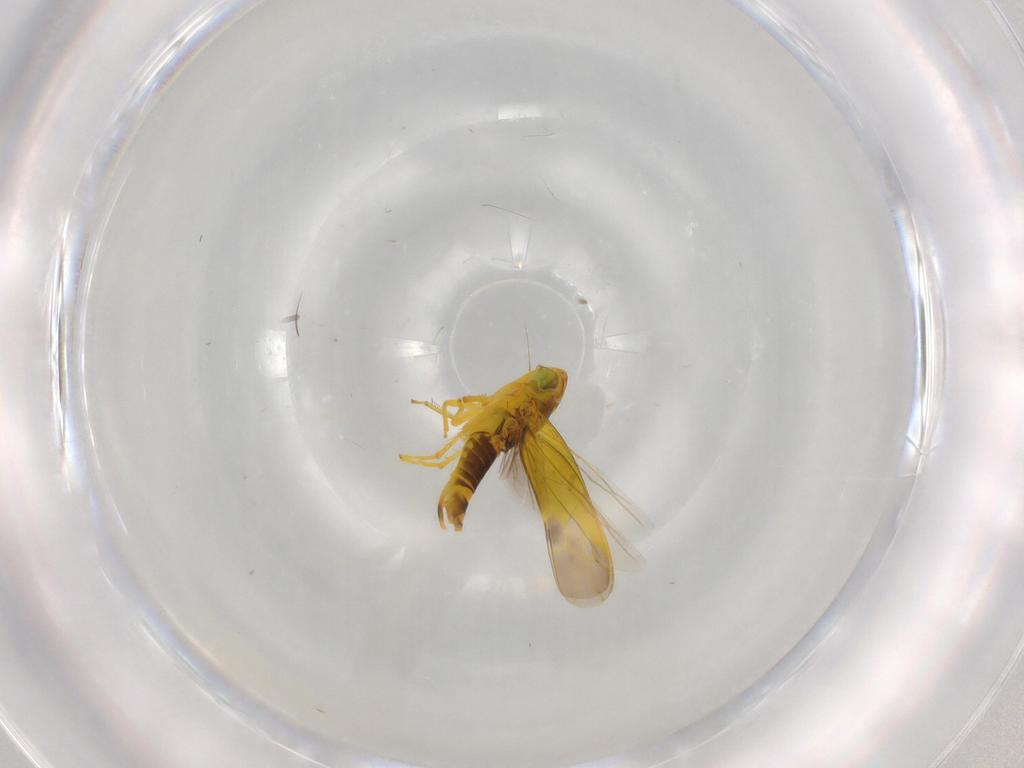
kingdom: Animalia
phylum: Arthropoda
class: Insecta
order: Hemiptera
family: Cicadellidae
